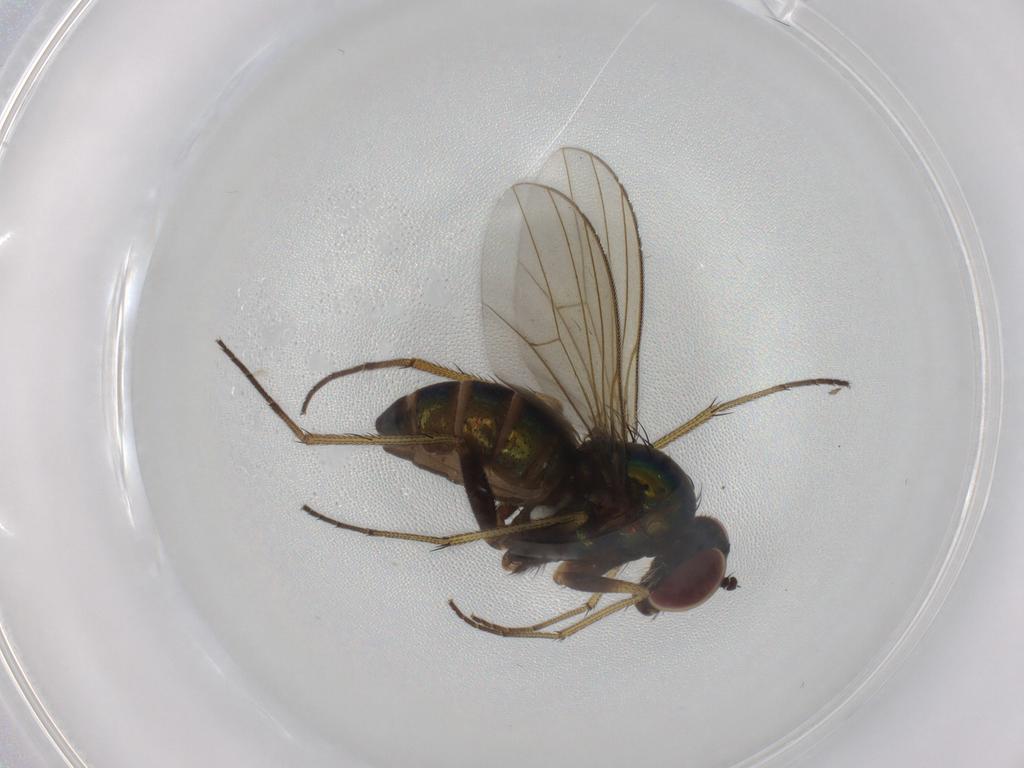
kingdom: Animalia
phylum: Arthropoda
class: Insecta
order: Diptera
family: Dolichopodidae
